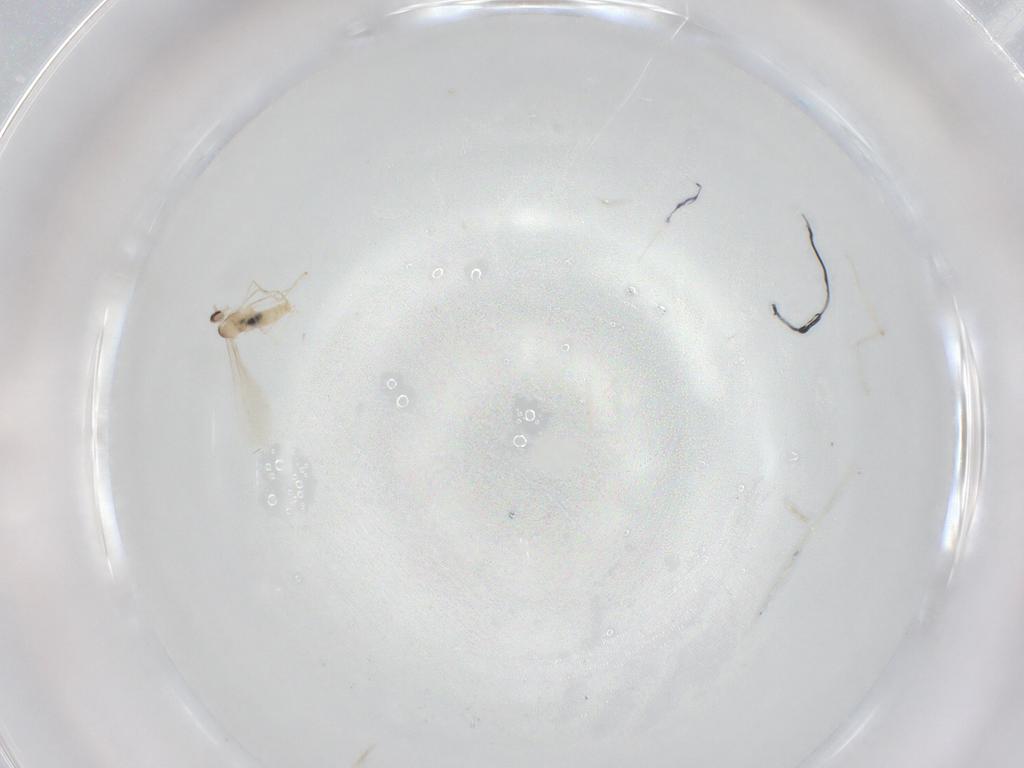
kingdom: Animalia
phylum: Arthropoda
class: Insecta
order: Diptera
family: Cecidomyiidae
